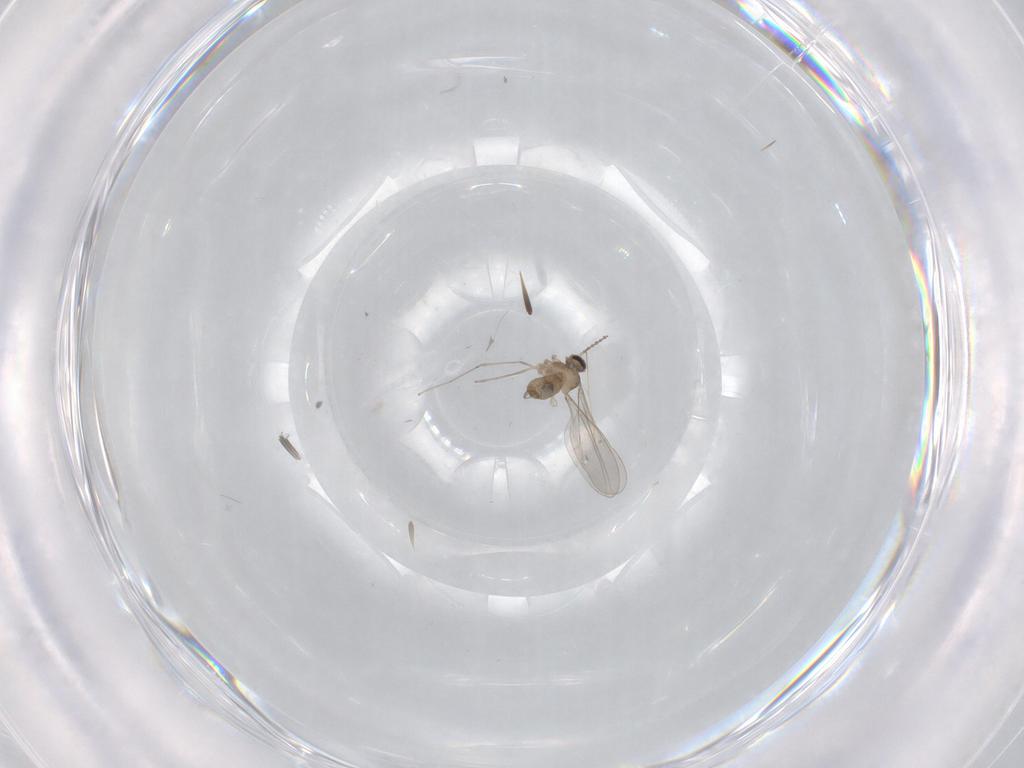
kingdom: Animalia
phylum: Arthropoda
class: Insecta
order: Diptera
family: Cecidomyiidae
